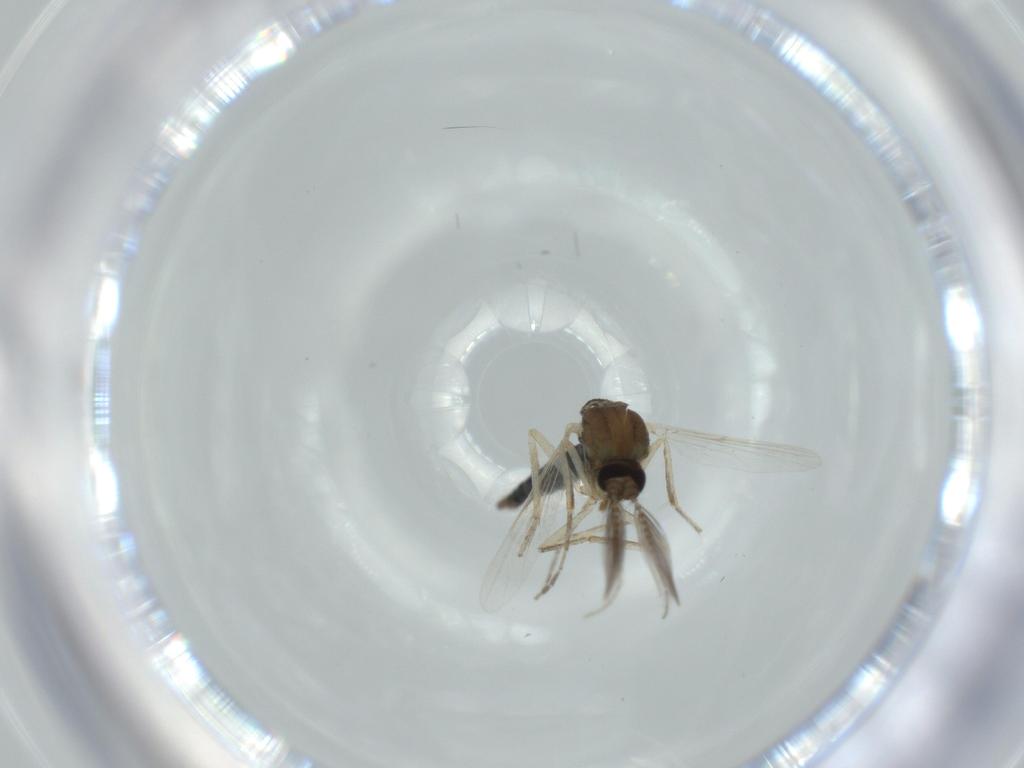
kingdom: Animalia
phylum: Arthropoda
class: Insecta
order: Diptera
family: Ceratopogonidae
